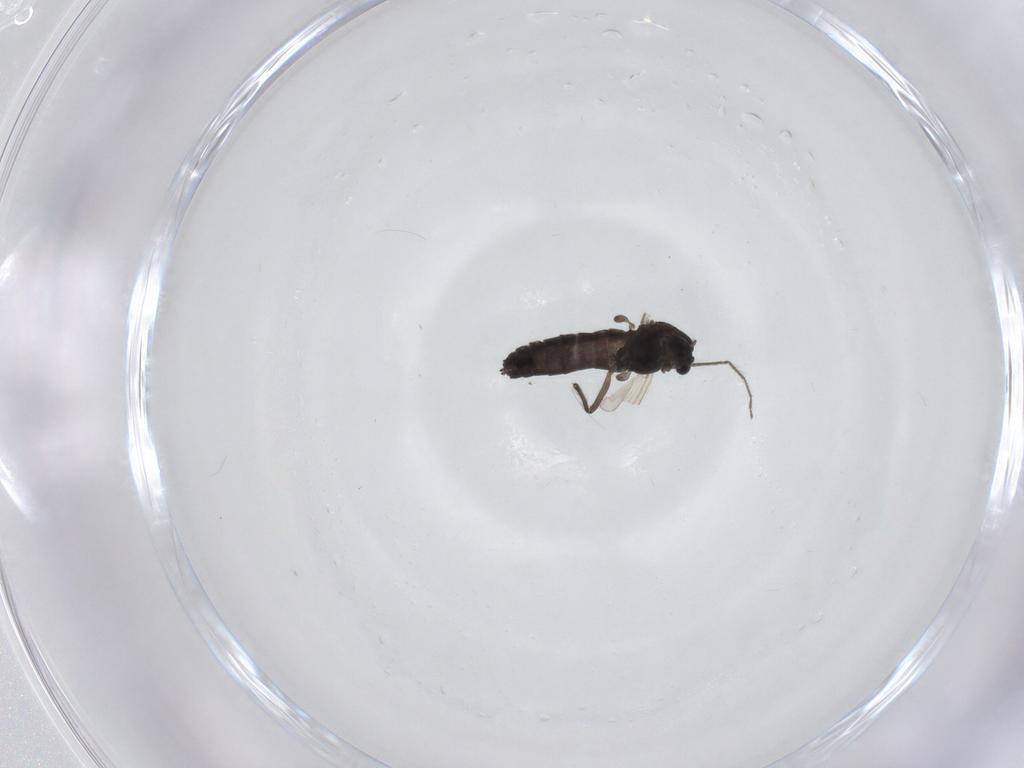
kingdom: Animalia
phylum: Arthropoda
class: Insecta
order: Diptera
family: Chironomidae
